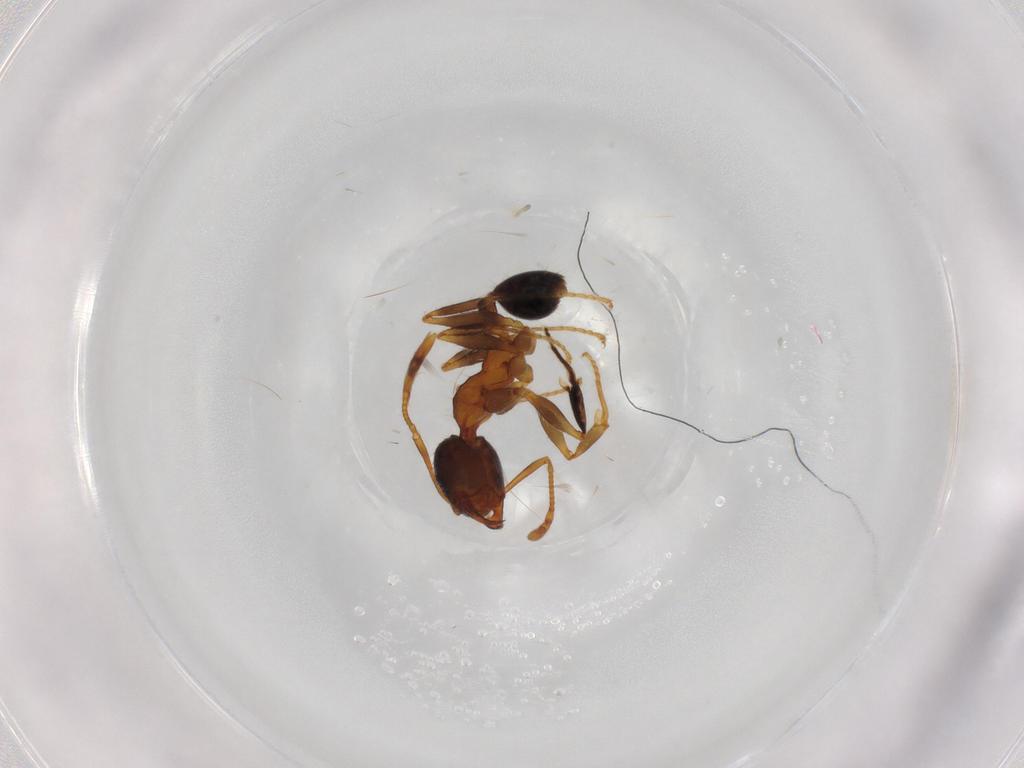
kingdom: Animalia
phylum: Arthropoda
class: Insecta
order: Hymenoptera
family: Formicidae
